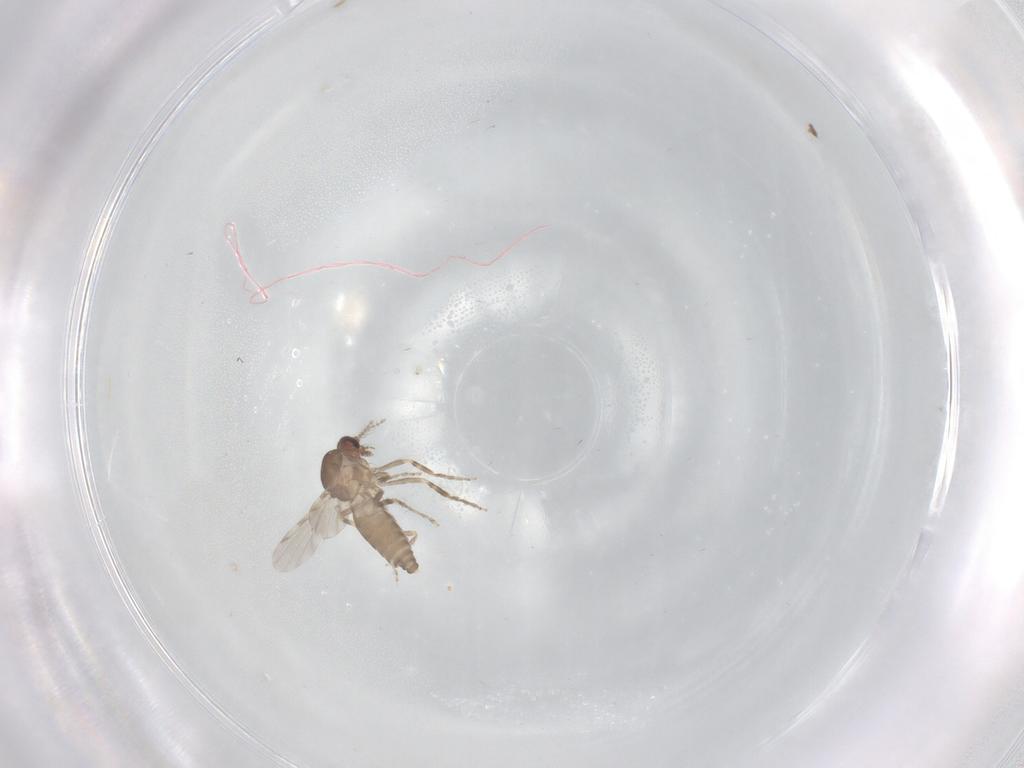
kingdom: Animalia
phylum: Arthropoda
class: Insecta
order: Diptera
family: Ceratopogonidae
